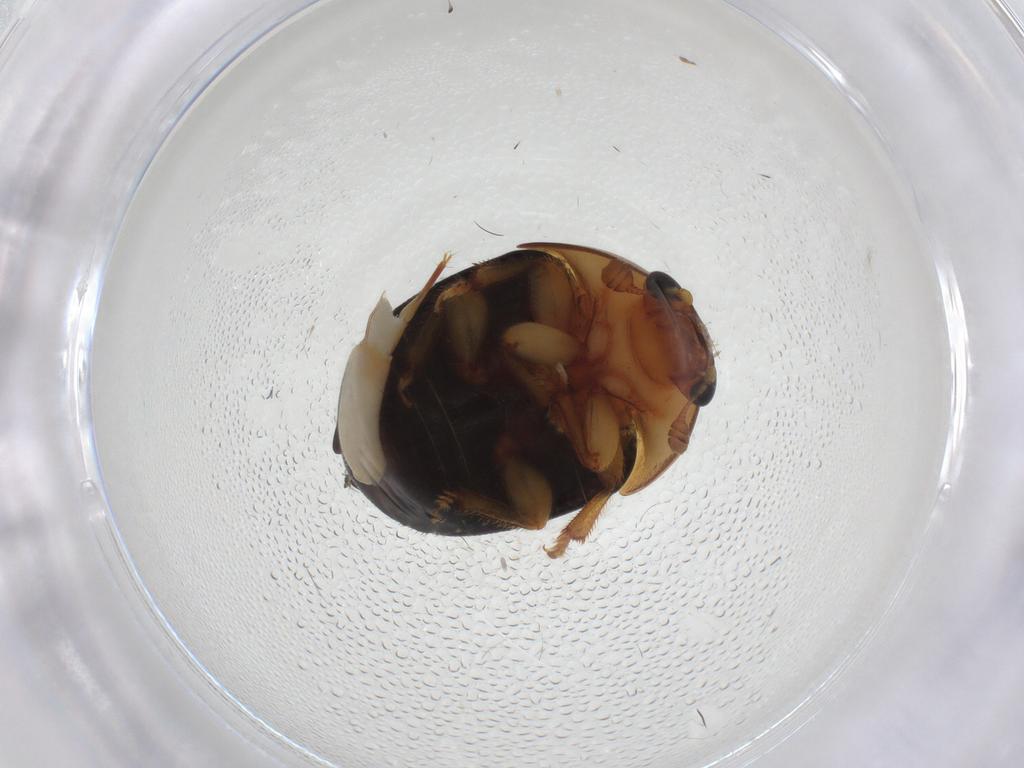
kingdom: Animalia
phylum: Arthropoda
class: Insecta
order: Coleoptera
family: Nitidulidae
